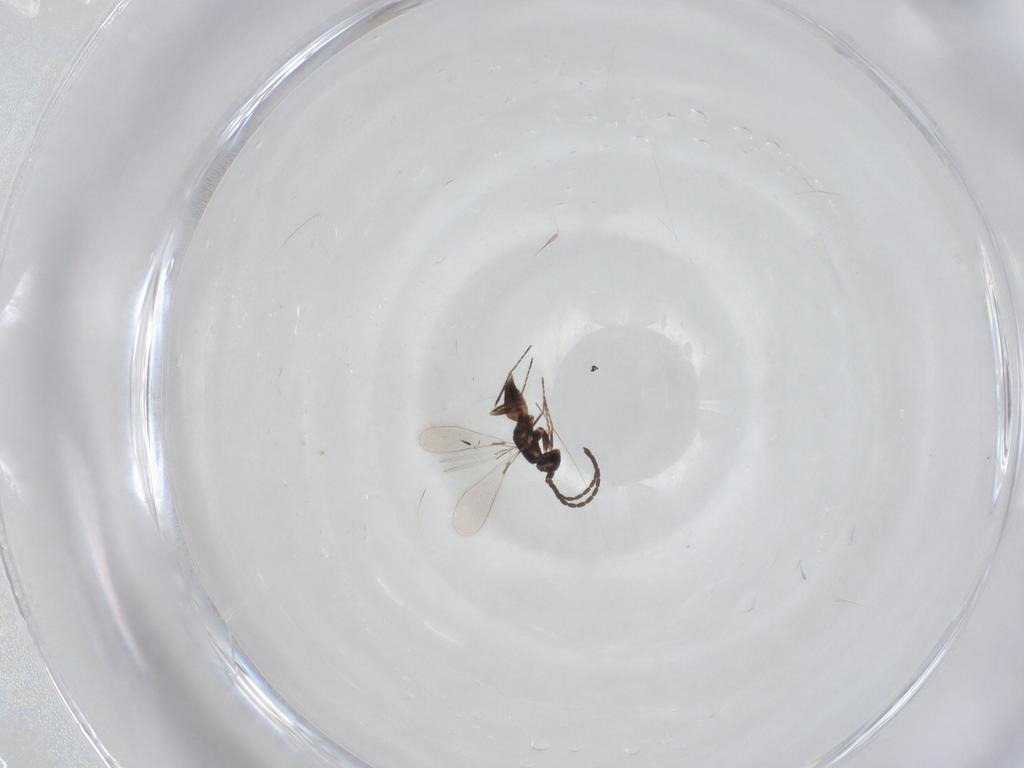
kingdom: Animalia
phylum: Arthropoda
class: Insecta
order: Hymenoptera
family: Mymaridae
